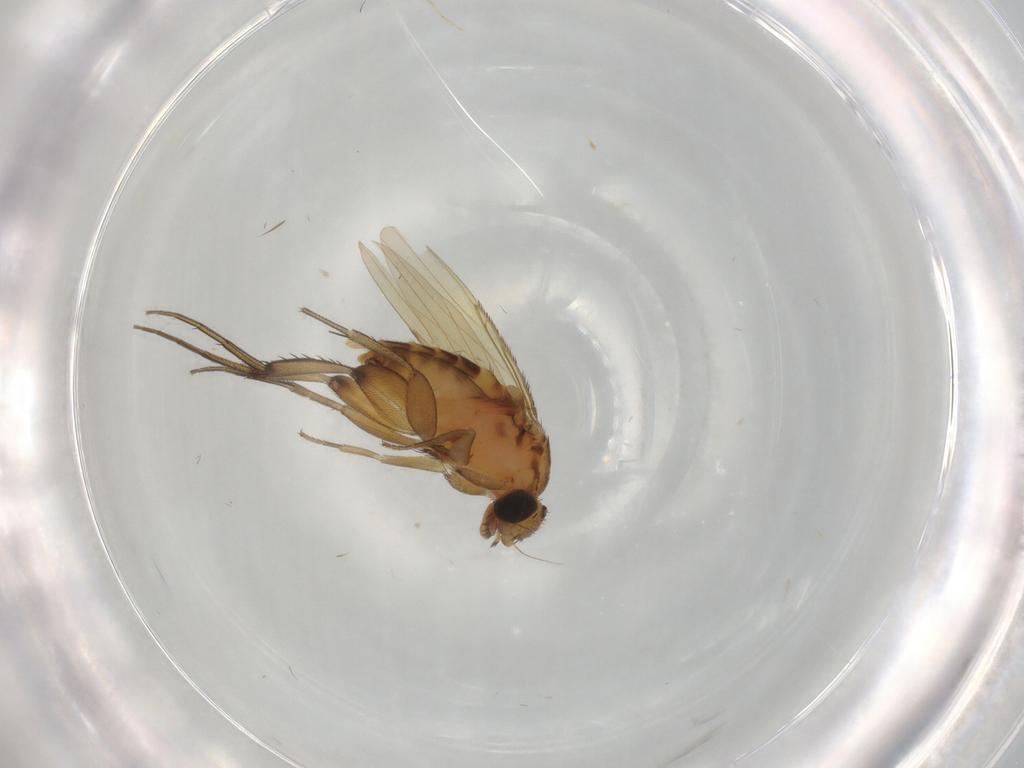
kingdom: Animalia
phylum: Arthropoda
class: Insecta
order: Diptera
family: Phoridae
